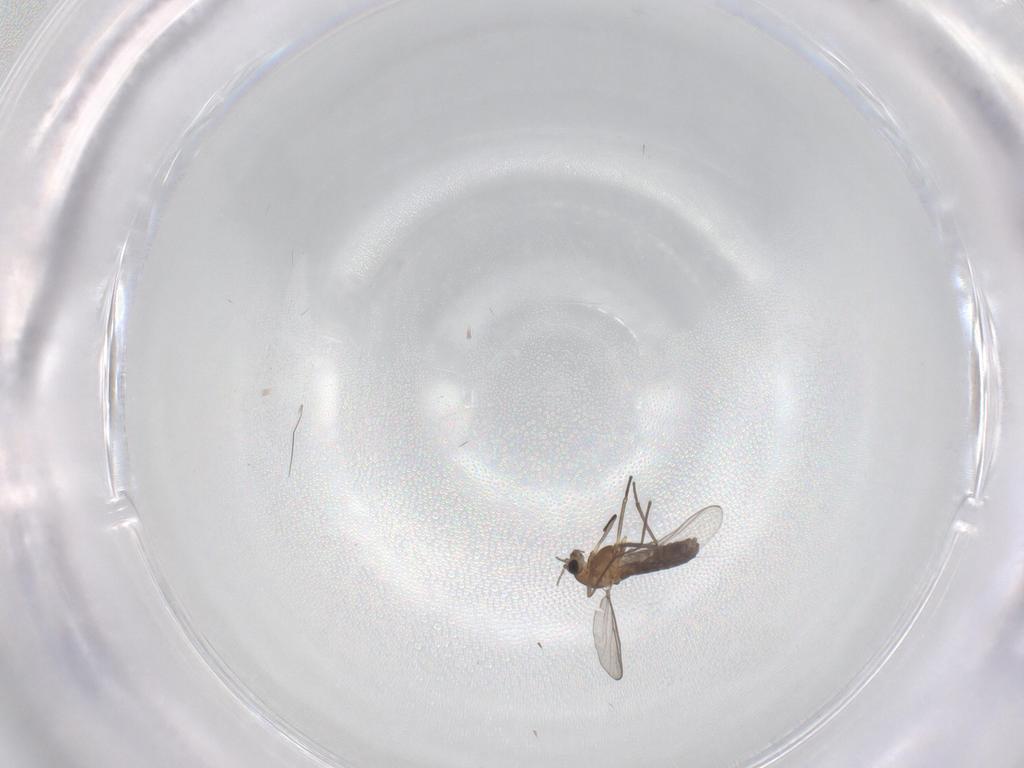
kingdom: Animalia
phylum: Arthropoda
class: Insecta
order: Diptera
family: Chironomidae
